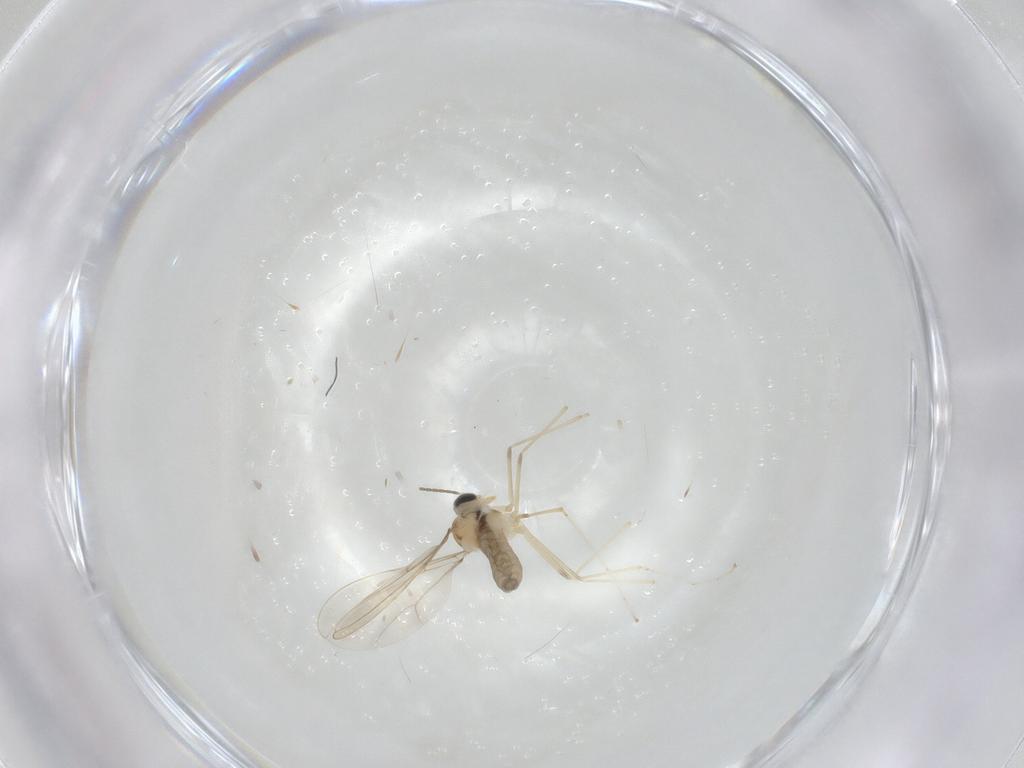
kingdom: Animalia
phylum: Arthropoda
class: Insecta
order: Diptera
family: Cecidomyiidae
